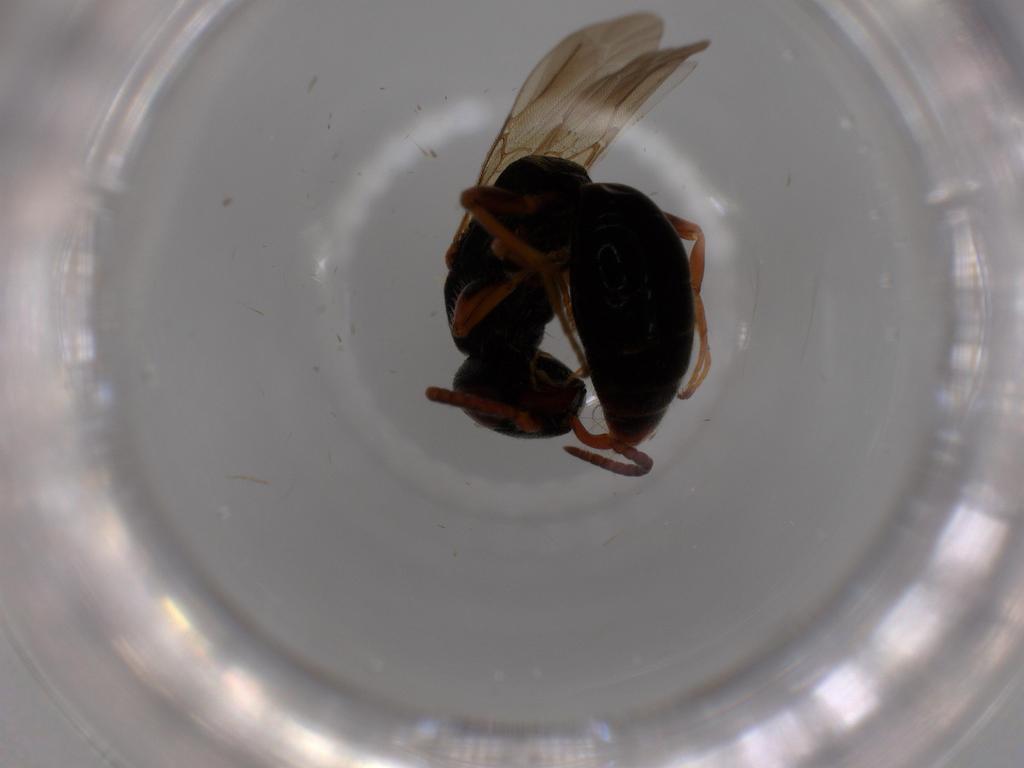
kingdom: Animalia
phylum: Arthropoda
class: Insecta
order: Hymenoptera
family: Bethylidae
